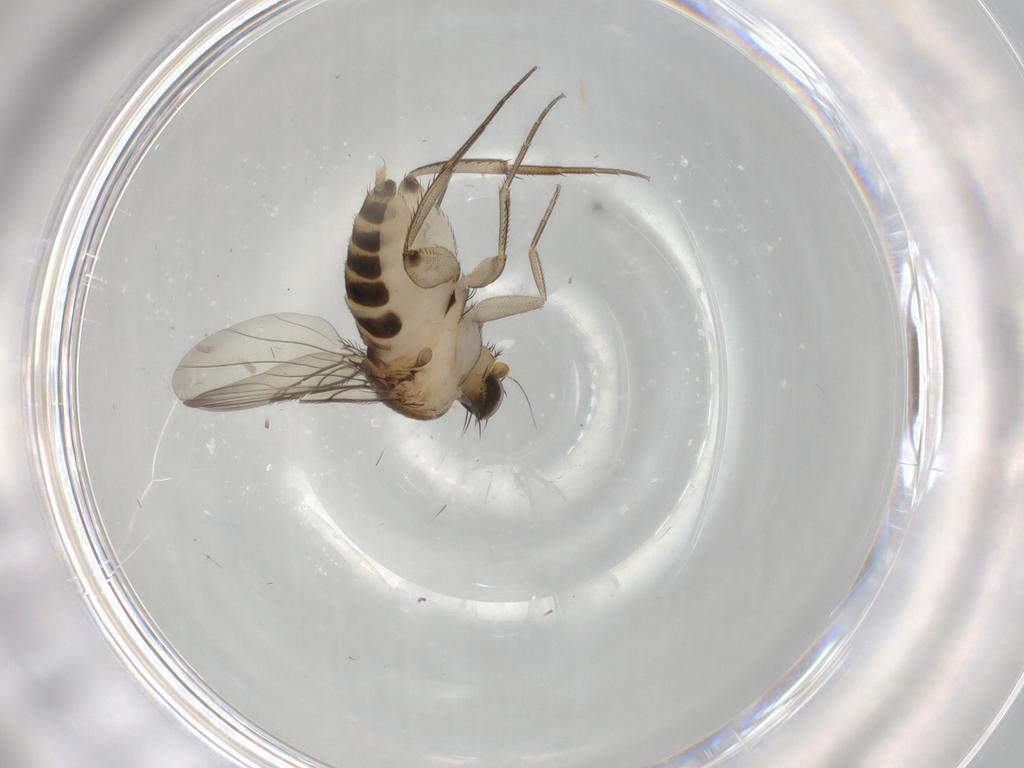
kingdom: Animalia
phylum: Arthropoda
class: Insecta
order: Diptera
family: Phoridae
